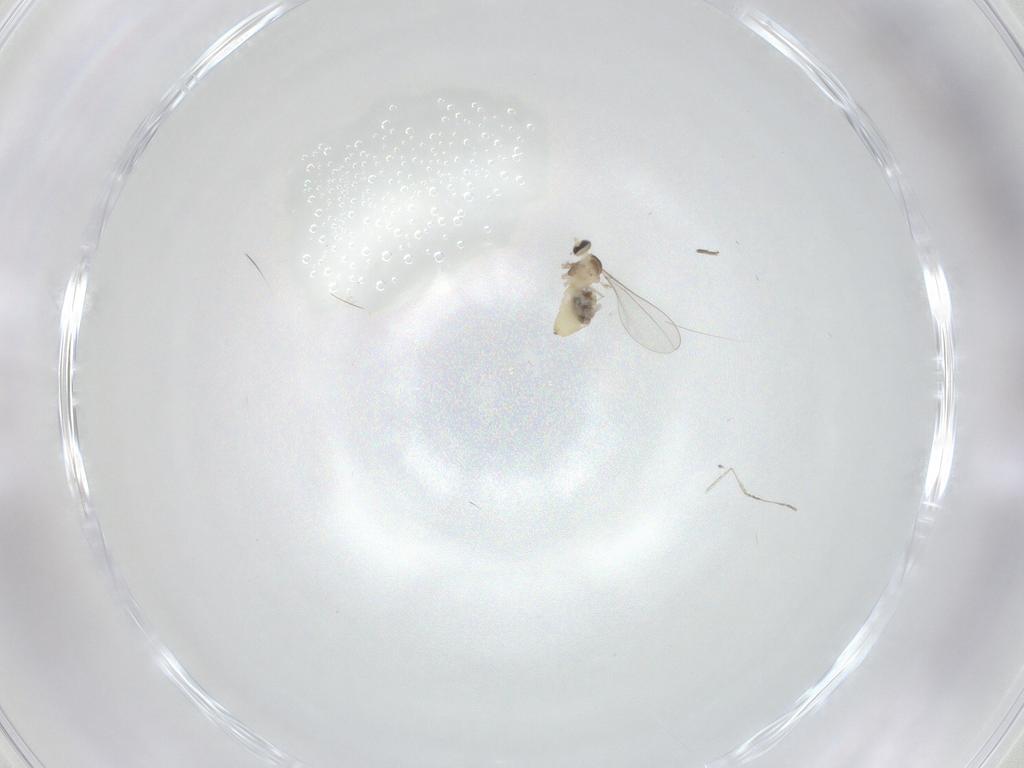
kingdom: Animalia
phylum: Arthropoda
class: Insecta
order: Diptera
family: Cecidomyiidae
